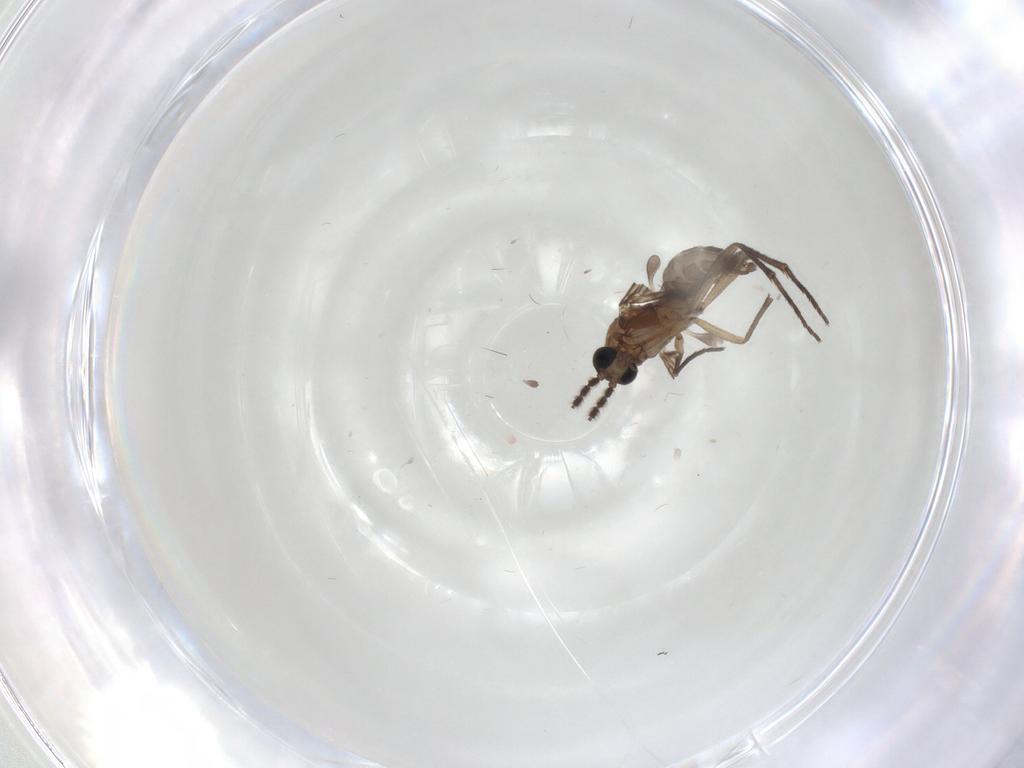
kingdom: Animalia
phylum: Arthropoda
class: Insecta
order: Diptera
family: Sciaridae
